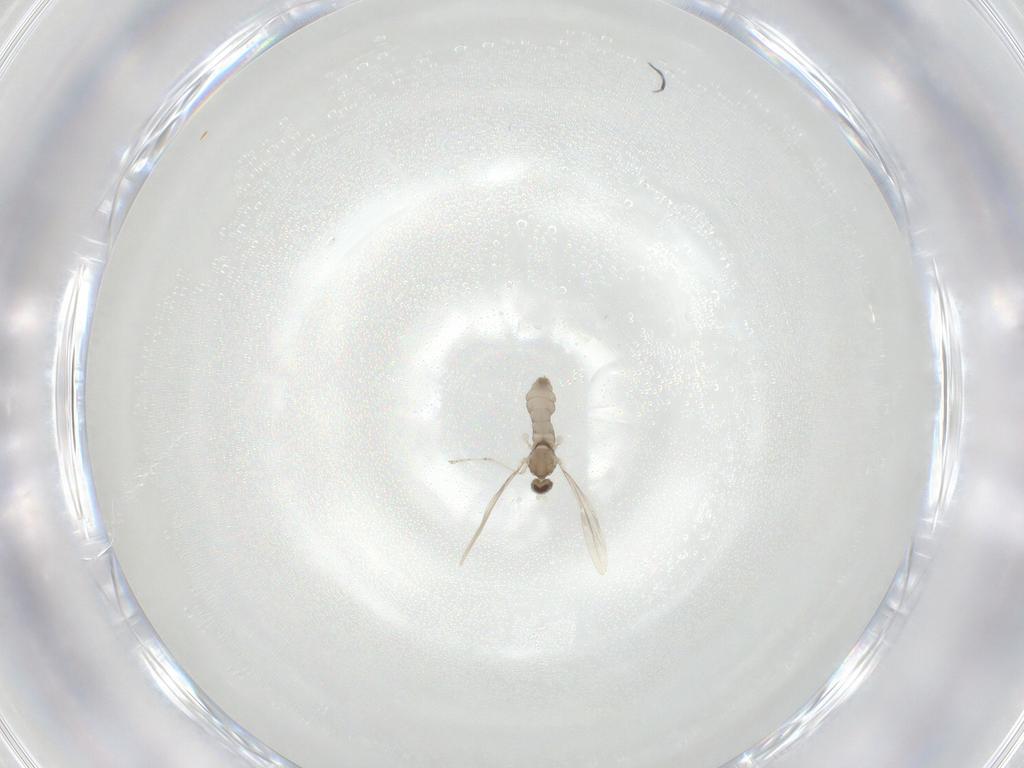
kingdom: Animalia
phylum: Arthropoda
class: Insecta
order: Diptera
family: Cecidomyiidae
